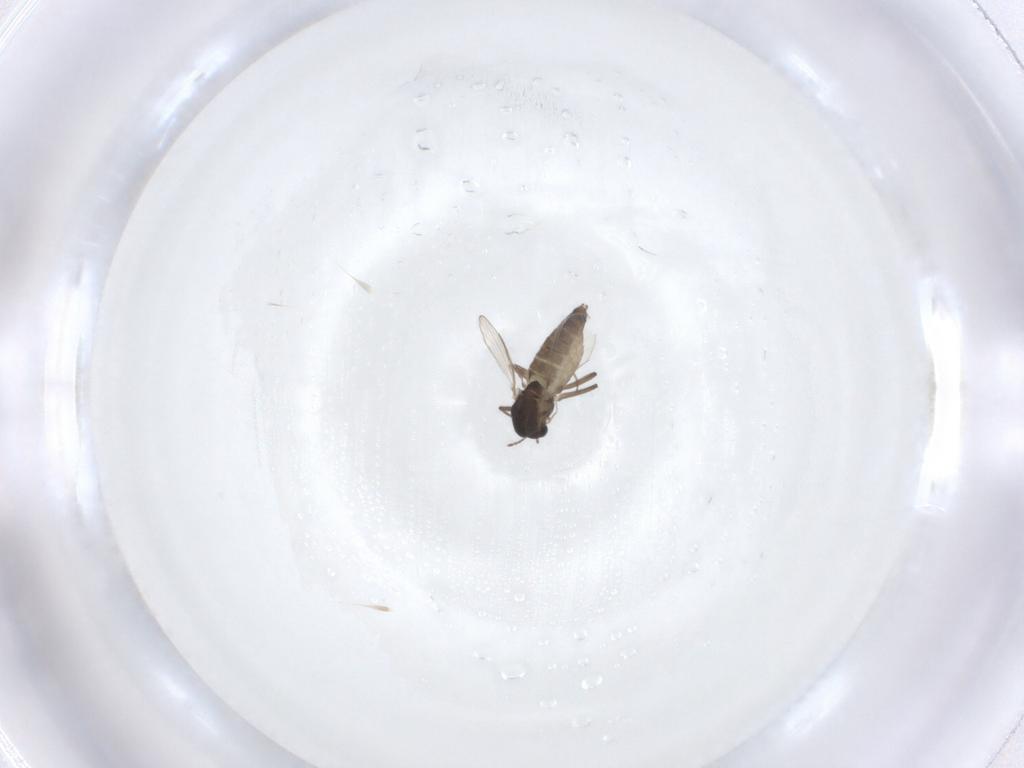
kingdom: Animalia
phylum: Arthropoda
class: Insecta
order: Diptera
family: Chironomidae
